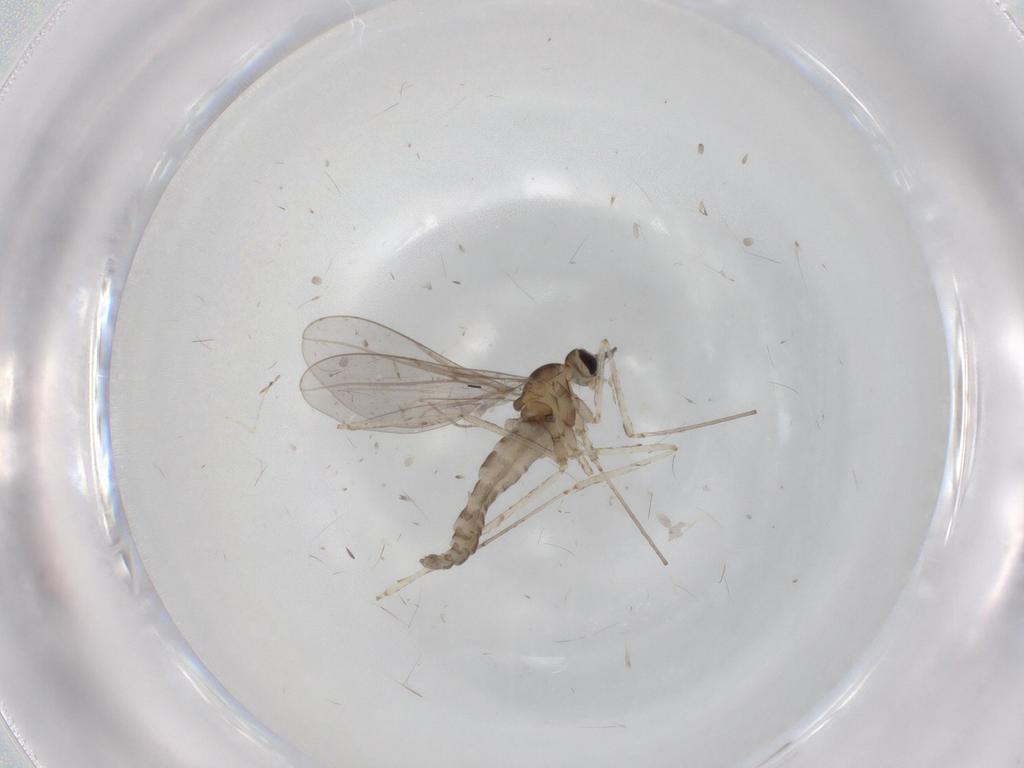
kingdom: Animalia
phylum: Arthropoda
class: Insecta
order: Diptera
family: Cecidomyiidae
